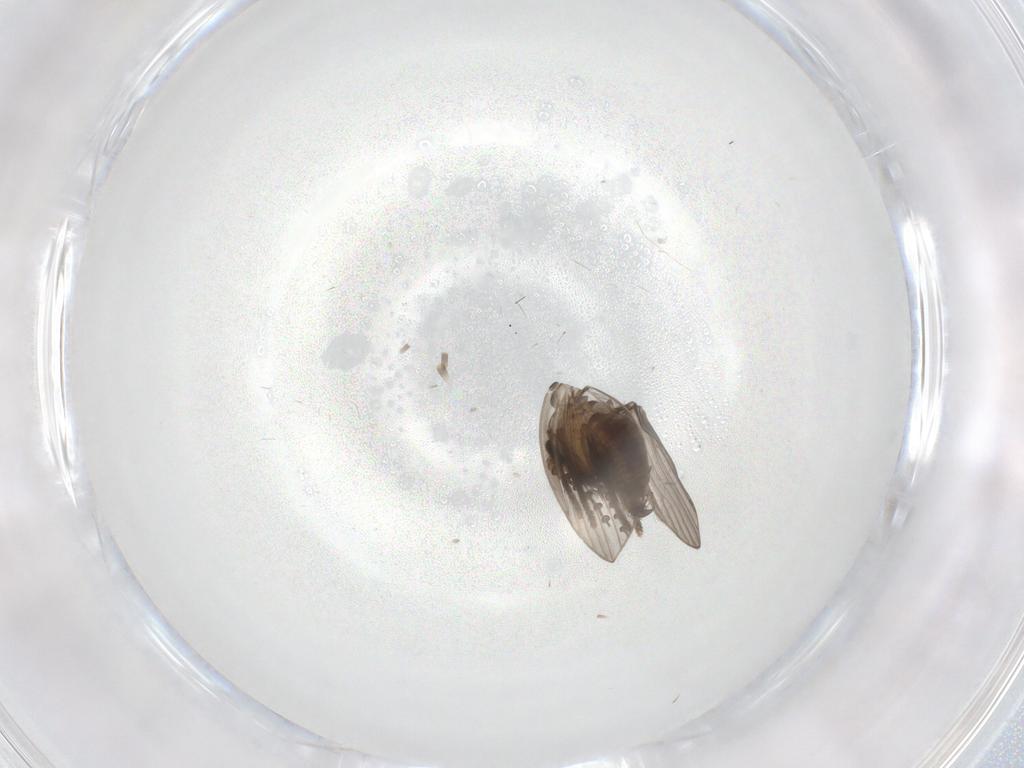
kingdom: Animalia
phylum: Arthropoda
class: Insecta
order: Diptera
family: Psychodidae
